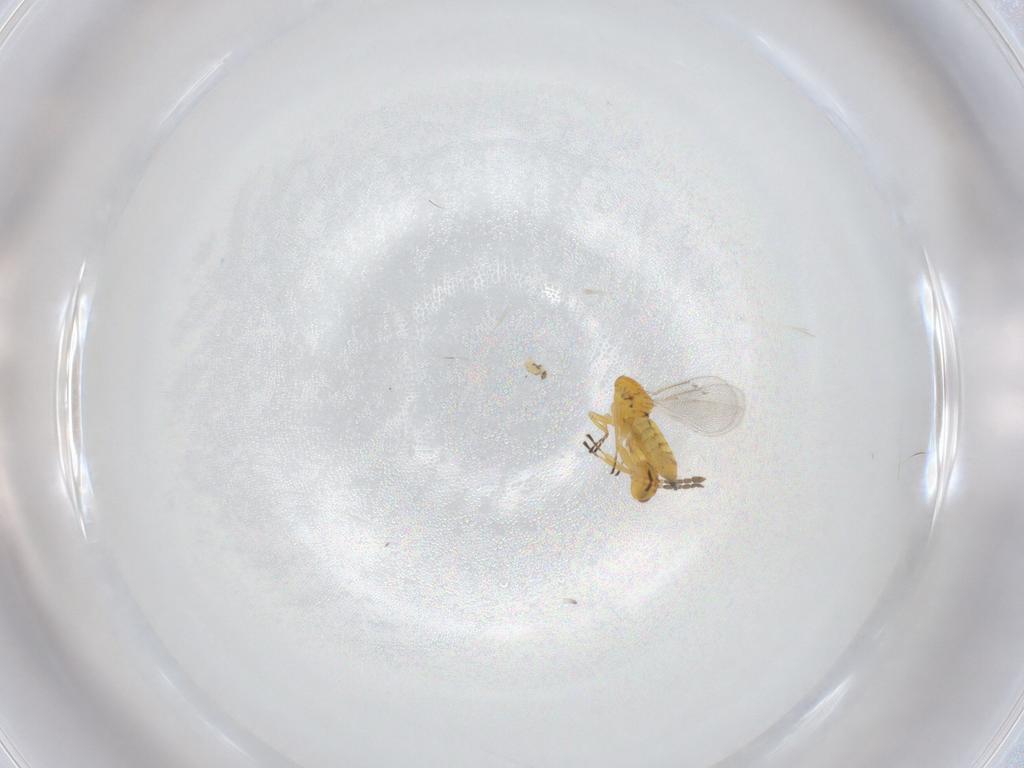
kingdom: Animalia
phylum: Arthropoda
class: Insecta
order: Hymenoptera
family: Eulophidae
